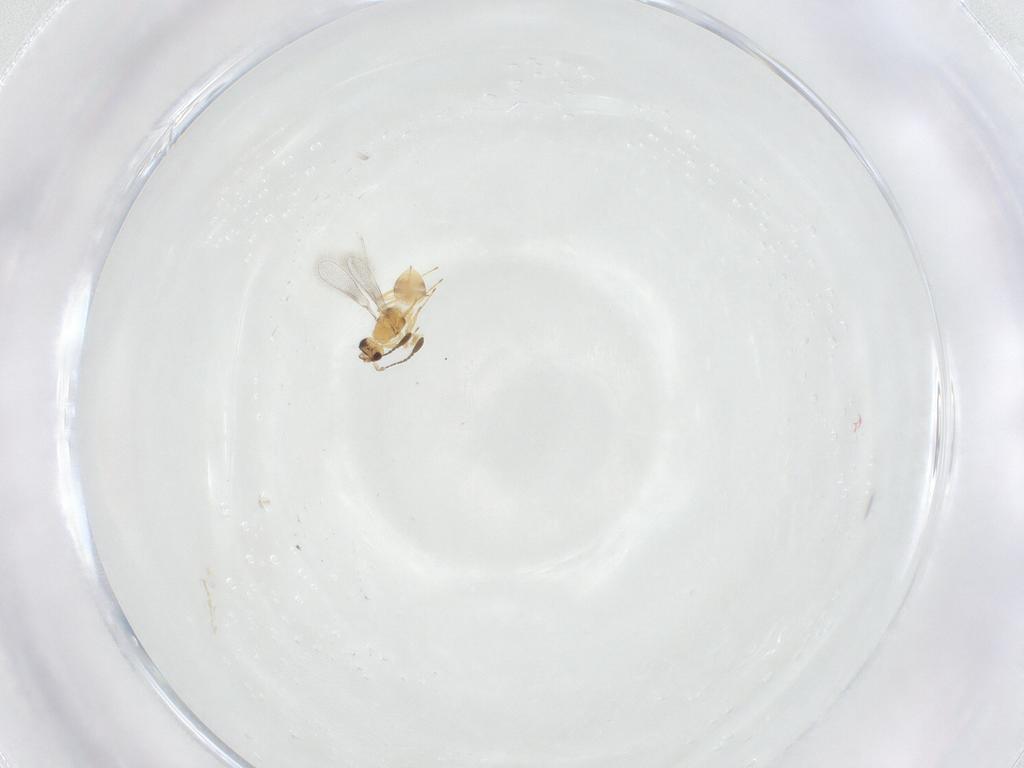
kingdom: Animalia
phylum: Arthropoda
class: Insecta
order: Hymenoptera
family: Mymaridae
